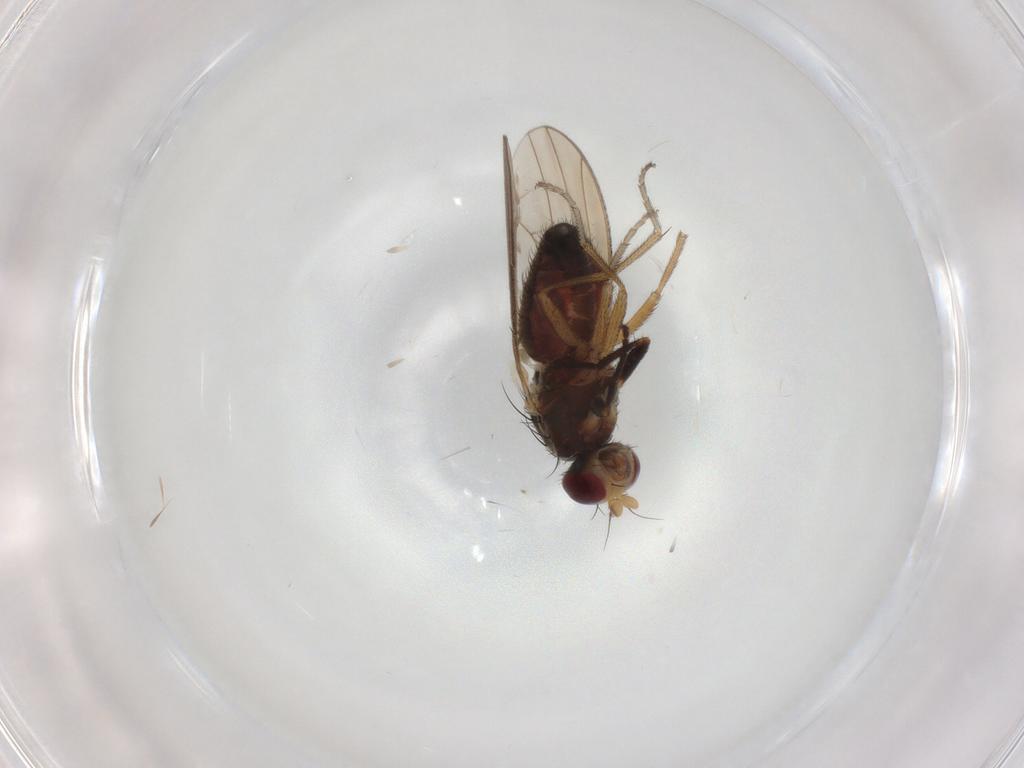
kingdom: Animalia
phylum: Arthropoda
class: Insecta
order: Diptera
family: Heleomyzidae
